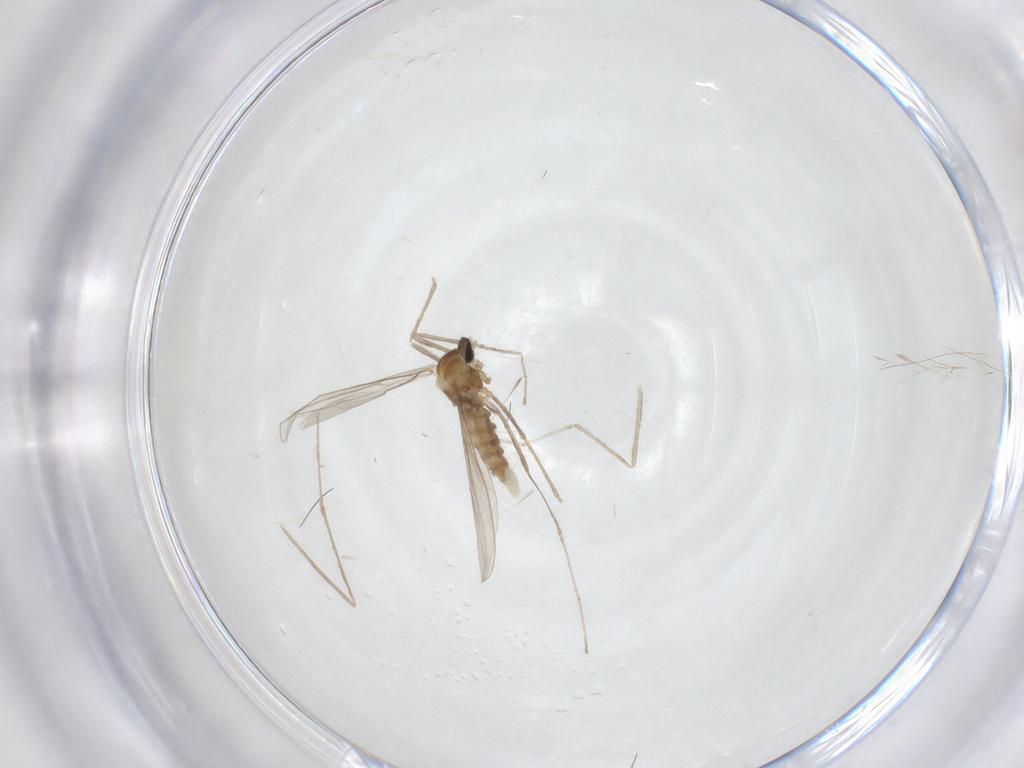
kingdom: Animalia
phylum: Arthropoda
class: Insecta
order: Diptera
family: Cecidomyiidae
